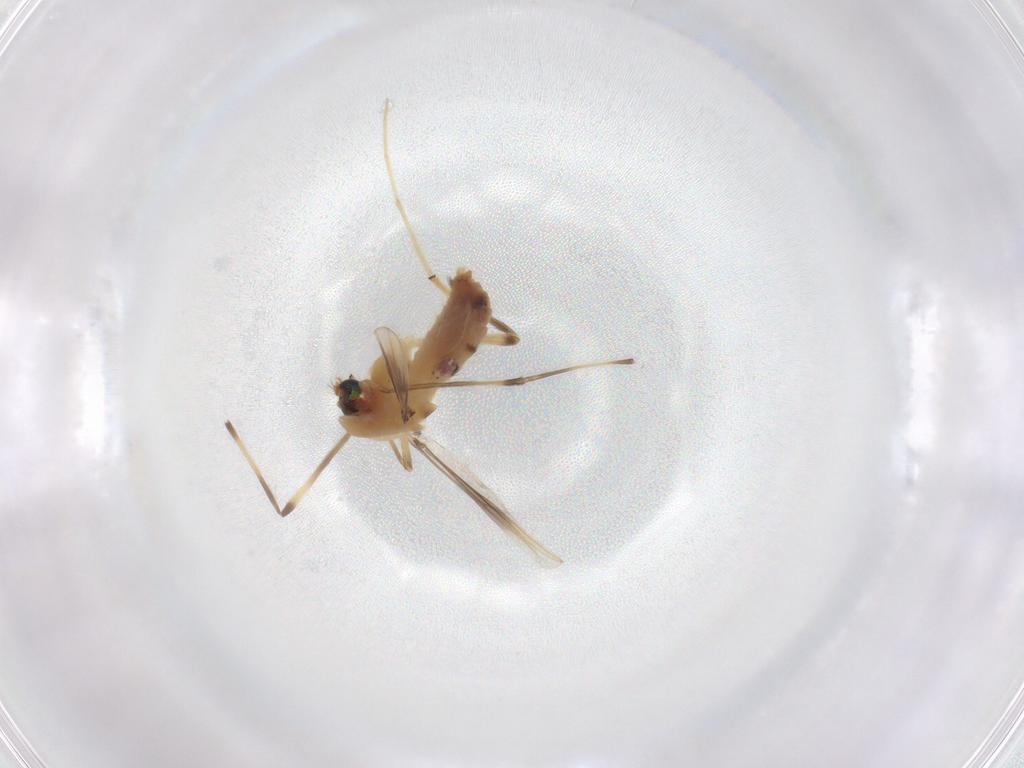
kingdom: Animalia
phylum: Arthropoda
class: Insecta
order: Diptera
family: Chironomidae
